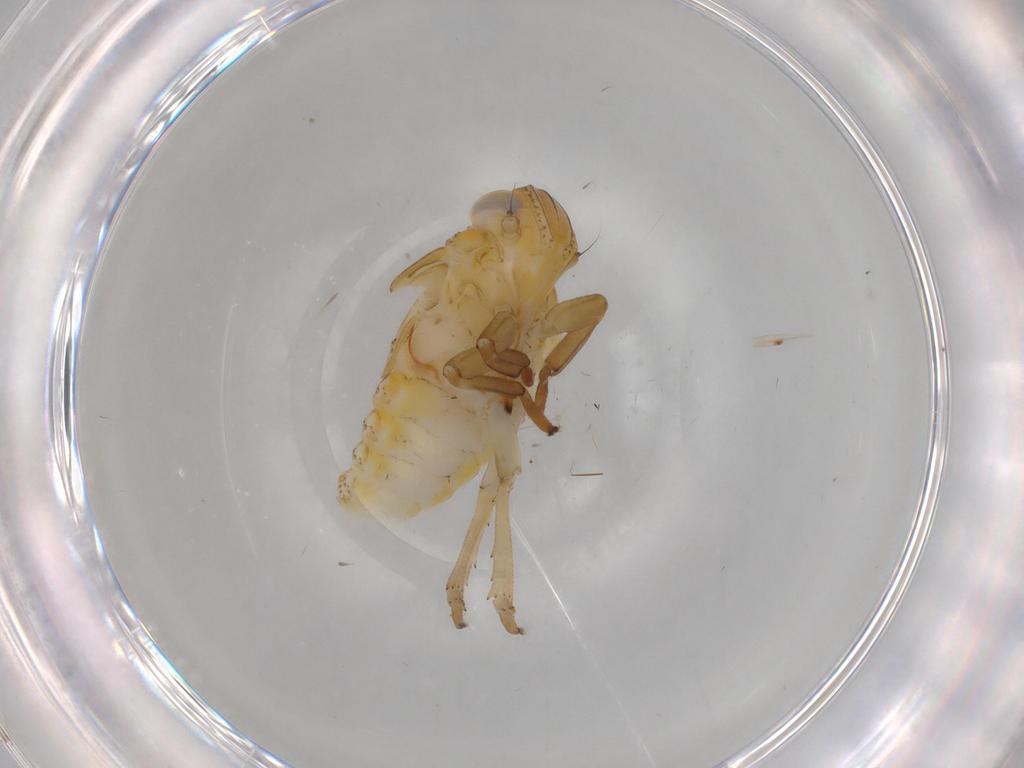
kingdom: Animalia
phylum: Arthropoda
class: Insecta
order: Hemiptera
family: Issidae
